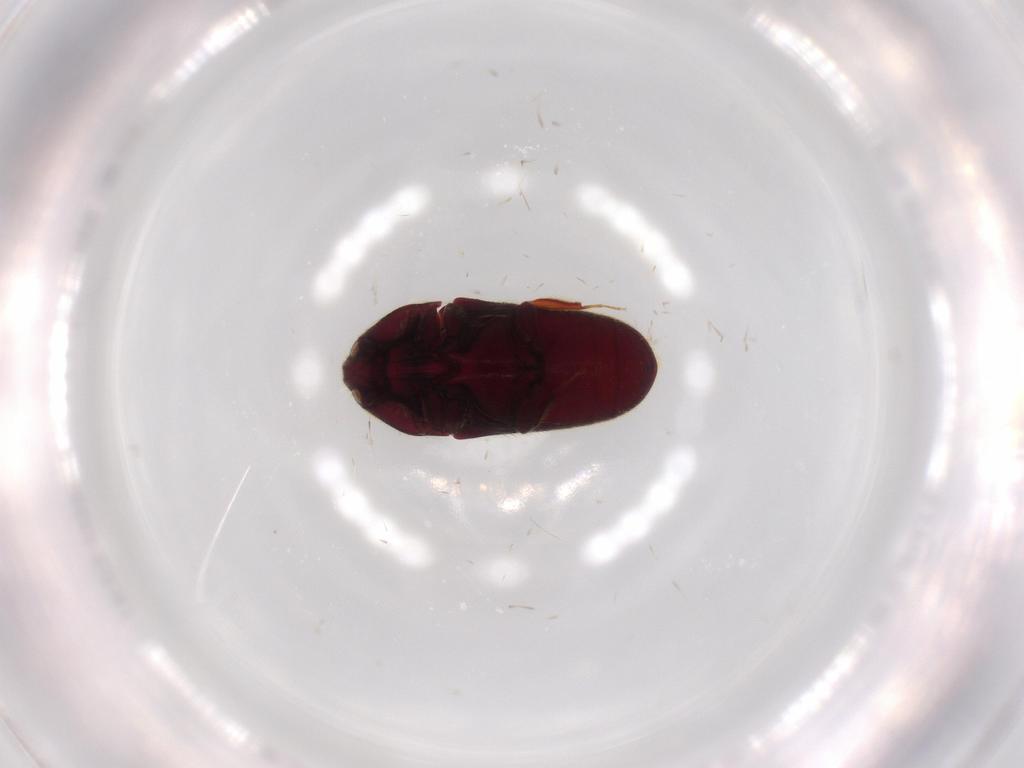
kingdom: Animalia
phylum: Arthropoda
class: Insecta
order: Coleoptera
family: Throscidae
